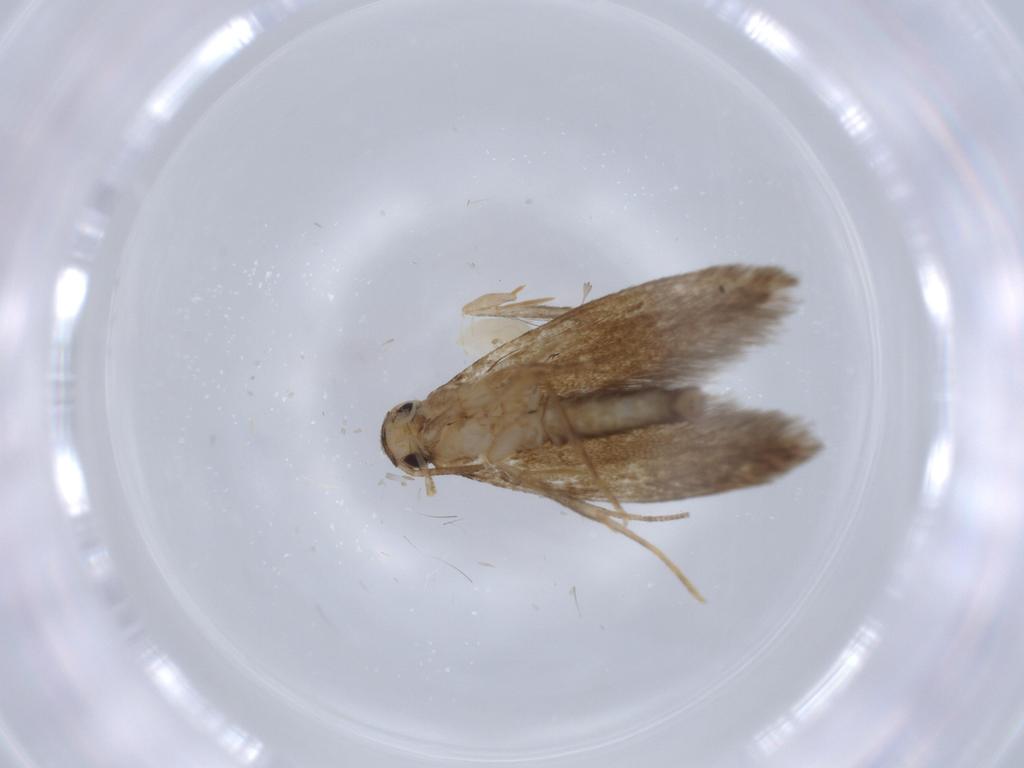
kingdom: Animalia
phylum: Arthropoda
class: Insecta
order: Lepidoptera
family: Tineidae
